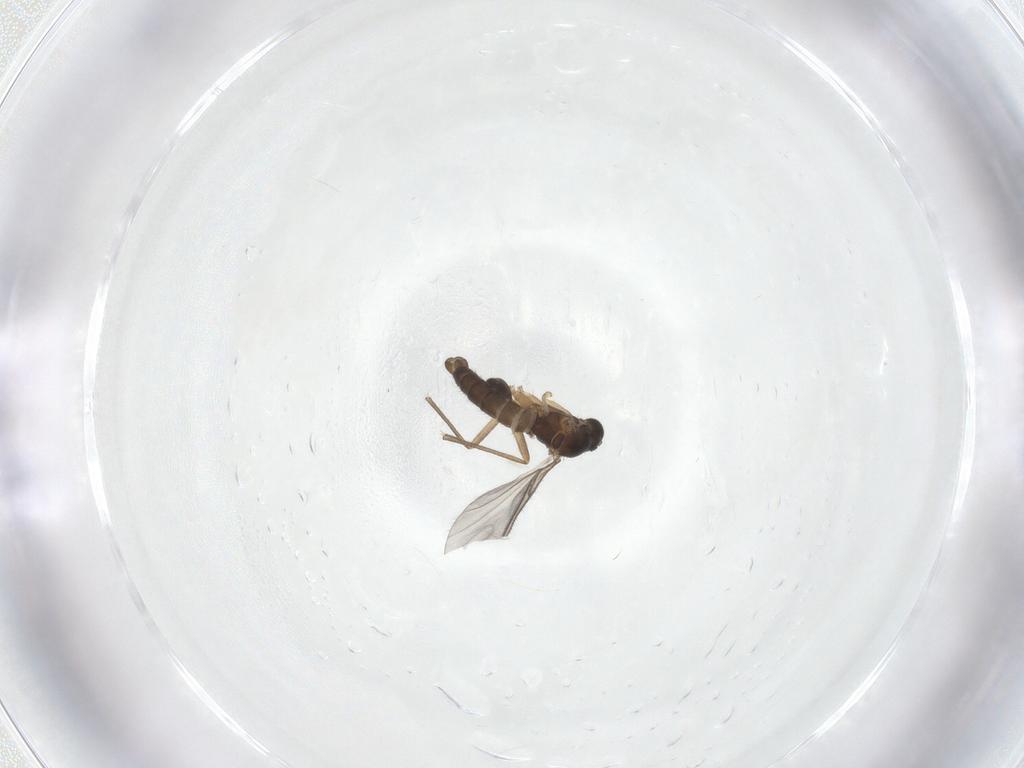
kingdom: Animalia
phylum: Arthropoda
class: Insecta
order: Diptera
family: Sciaridae
